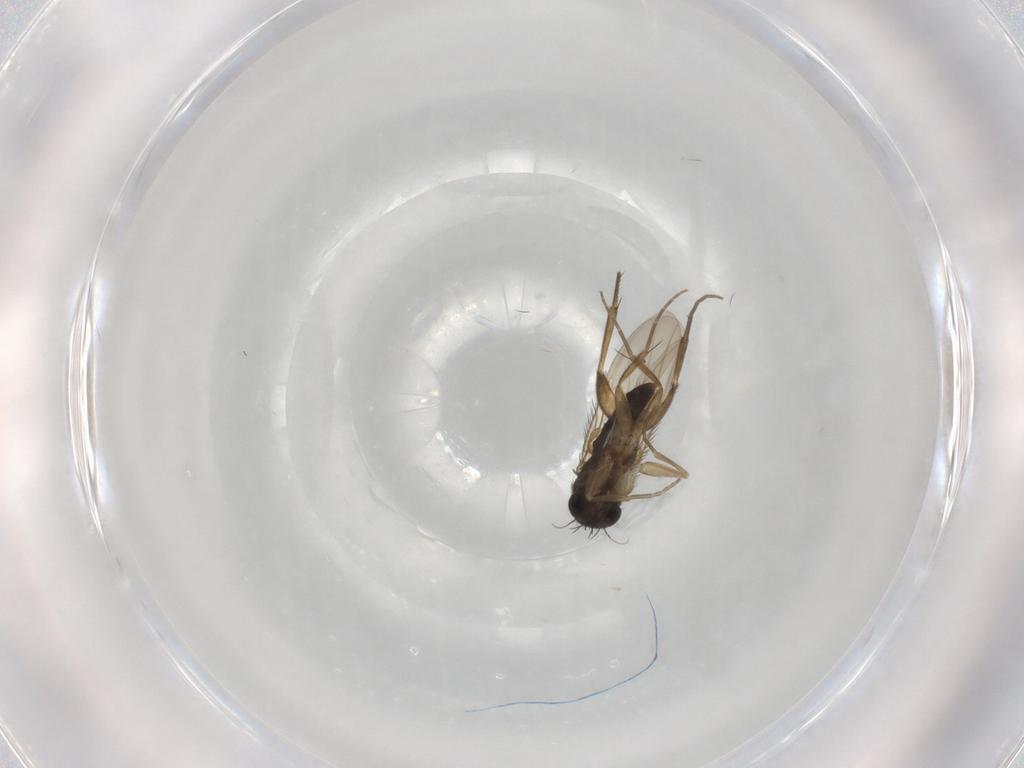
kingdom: Animalia
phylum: Arthropoda
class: Insecta
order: Diptera
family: Phoridae
